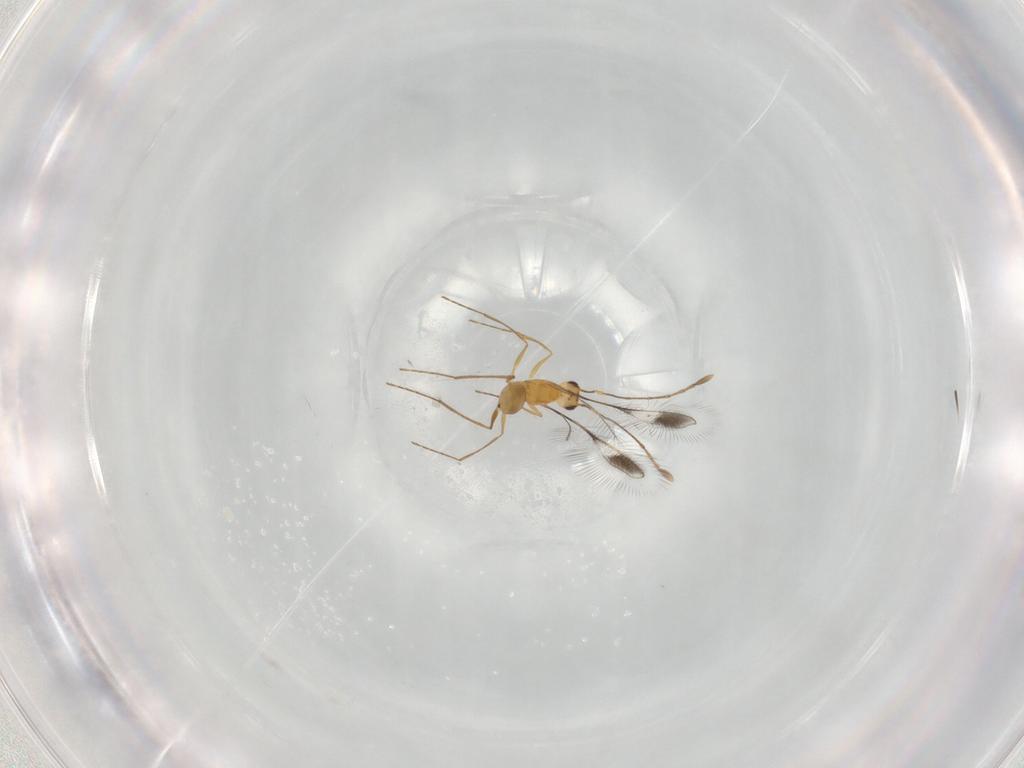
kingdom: Animalia
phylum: Arthropoda
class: Insecta
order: Hymenoptera
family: Mymaridae
